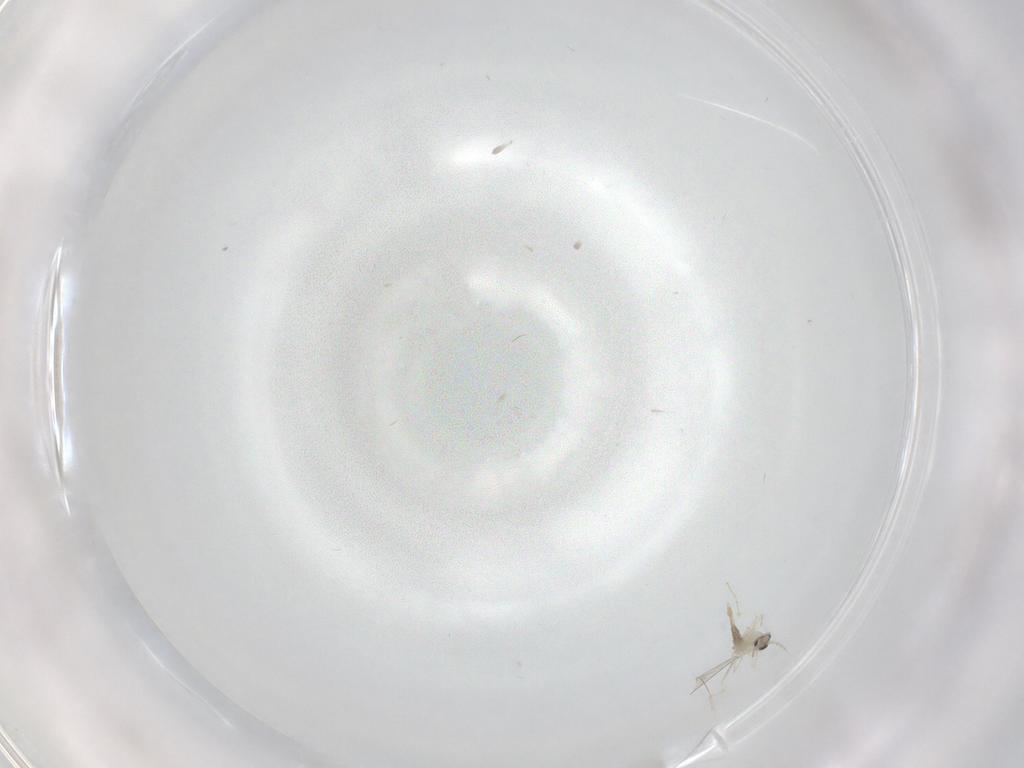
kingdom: Animalia
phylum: Arthropoda
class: Insecta
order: Diptera
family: Cecidomyiidae
